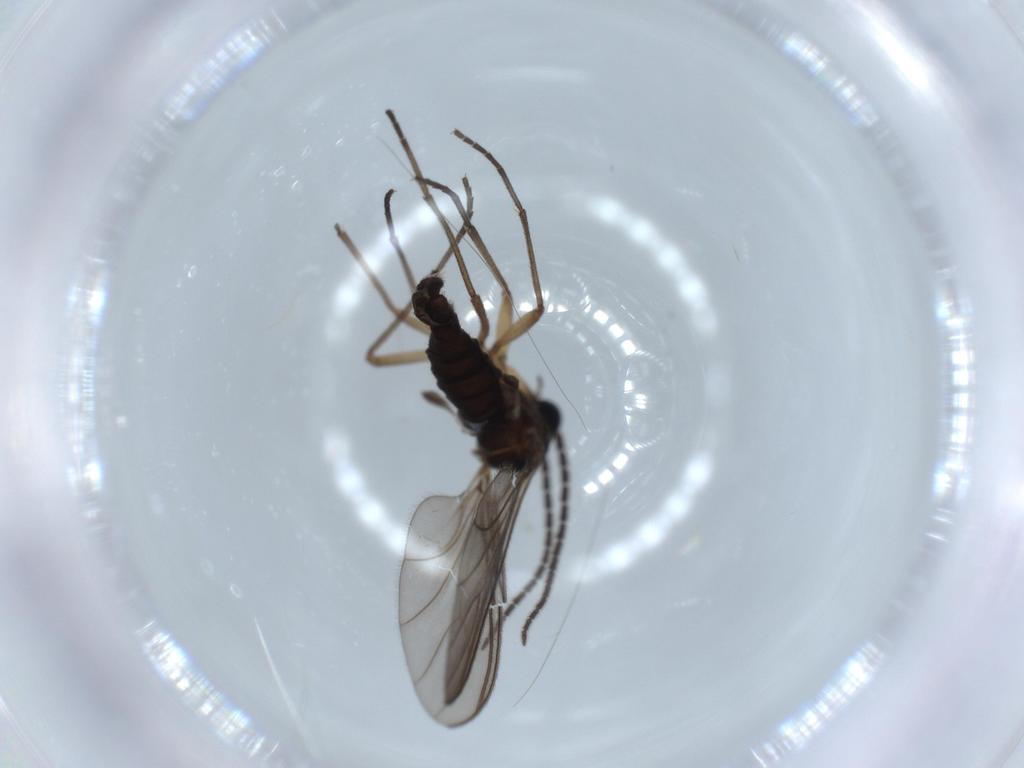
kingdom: Animalia
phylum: Arthropoda
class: Insecta
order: Diptera
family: Sciaridae
